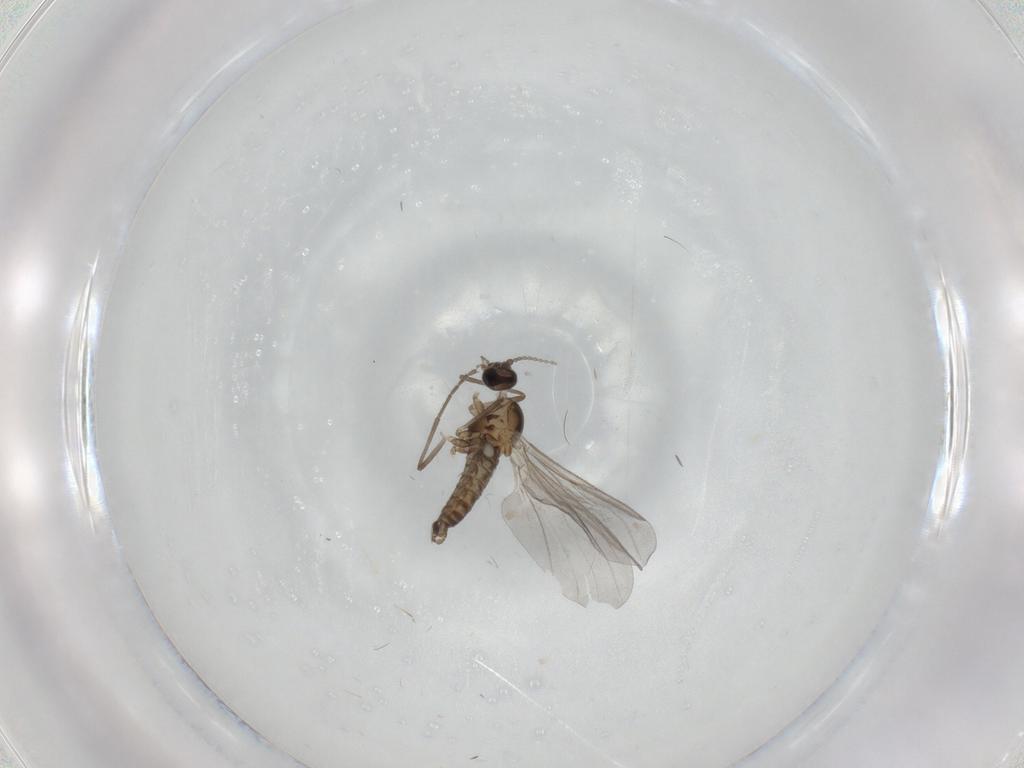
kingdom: Animalia
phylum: Arthropoda
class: Insecta
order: Diptera
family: Cecidomyiidae
